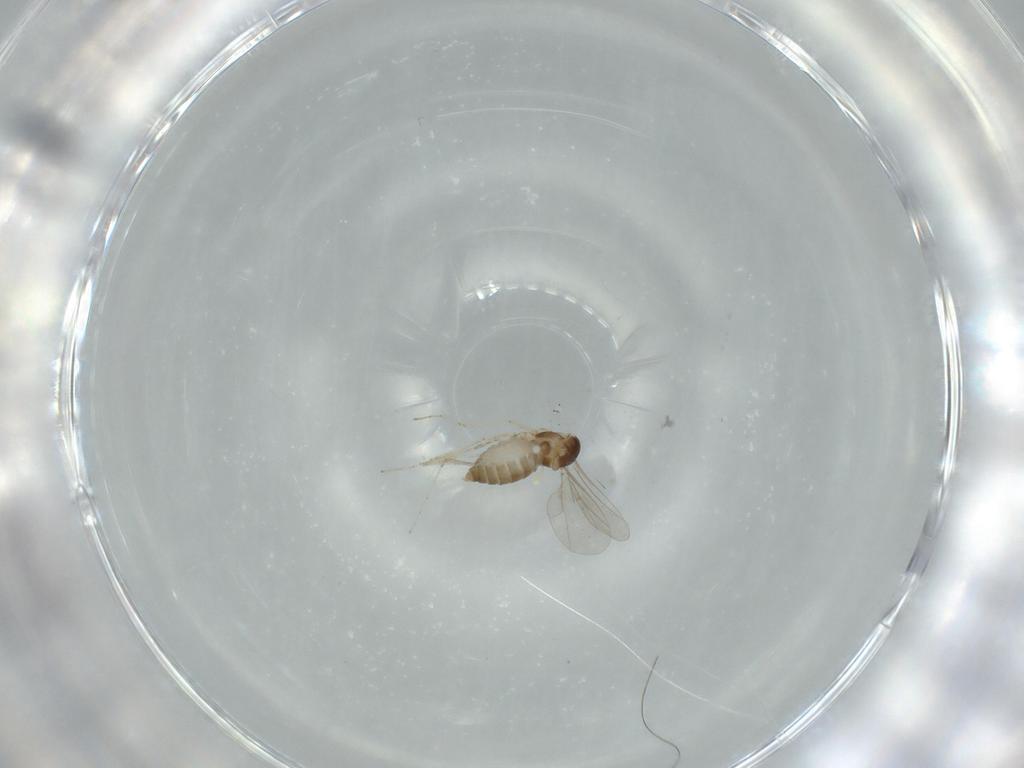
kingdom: Animalia
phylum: Arthropoda
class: Insecta
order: Diptera
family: Cecidomyiidae
